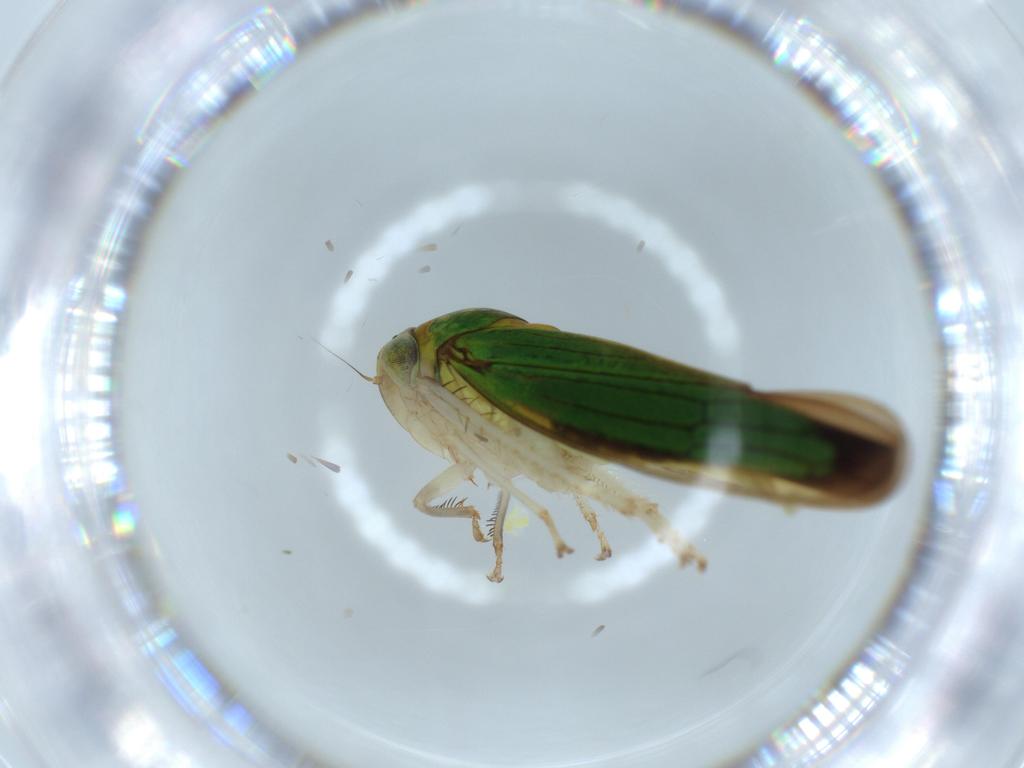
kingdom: Animalia
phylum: Arthropoda
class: Insecta
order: Hemiptera
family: Cicadellidae
